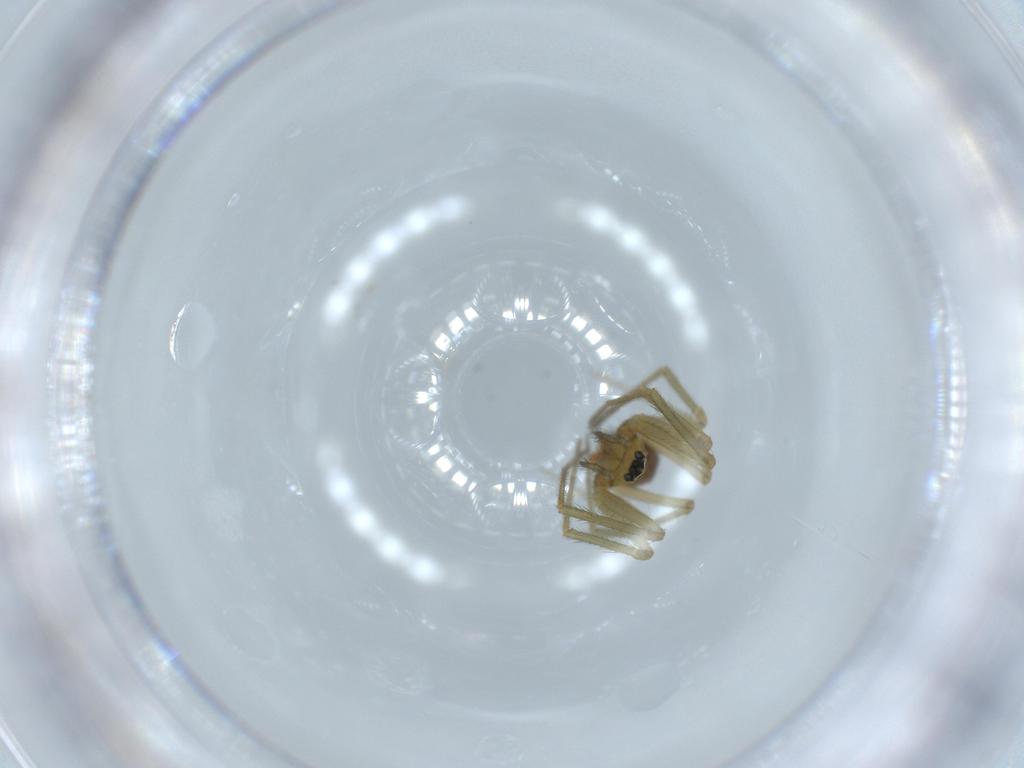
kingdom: Animalia
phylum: Arthropoda
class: Arachnida
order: Araneae
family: Linyphiidae
